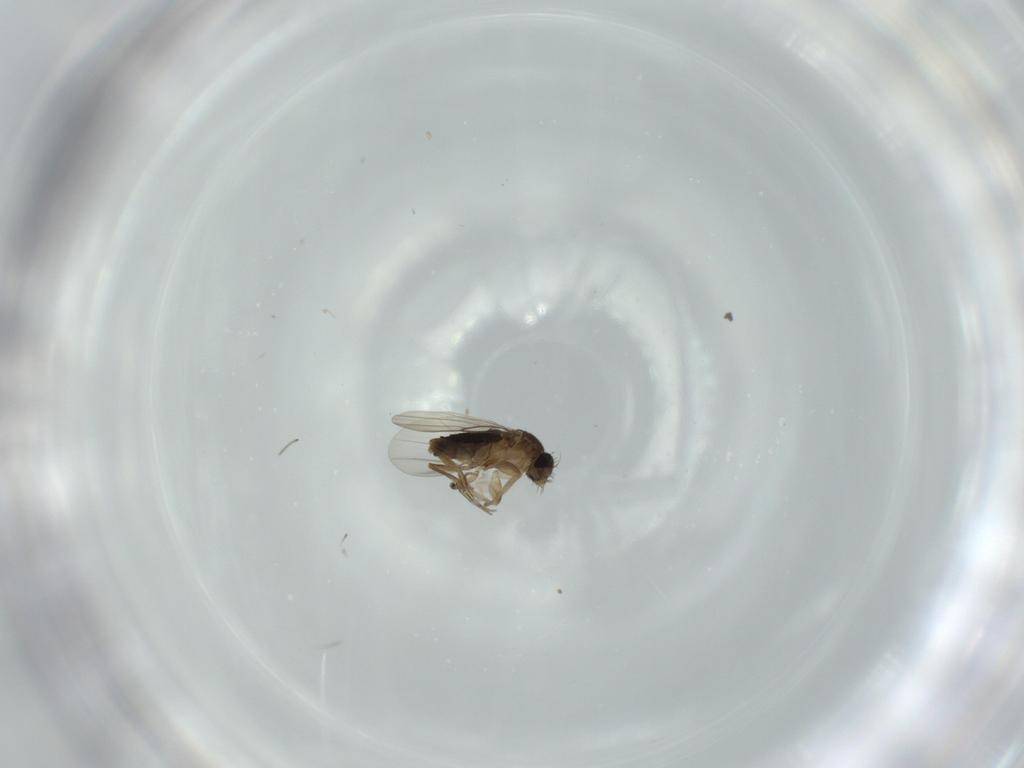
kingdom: Animalia
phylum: Arthropoda
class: Insecta
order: Diptera
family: Phoridae
